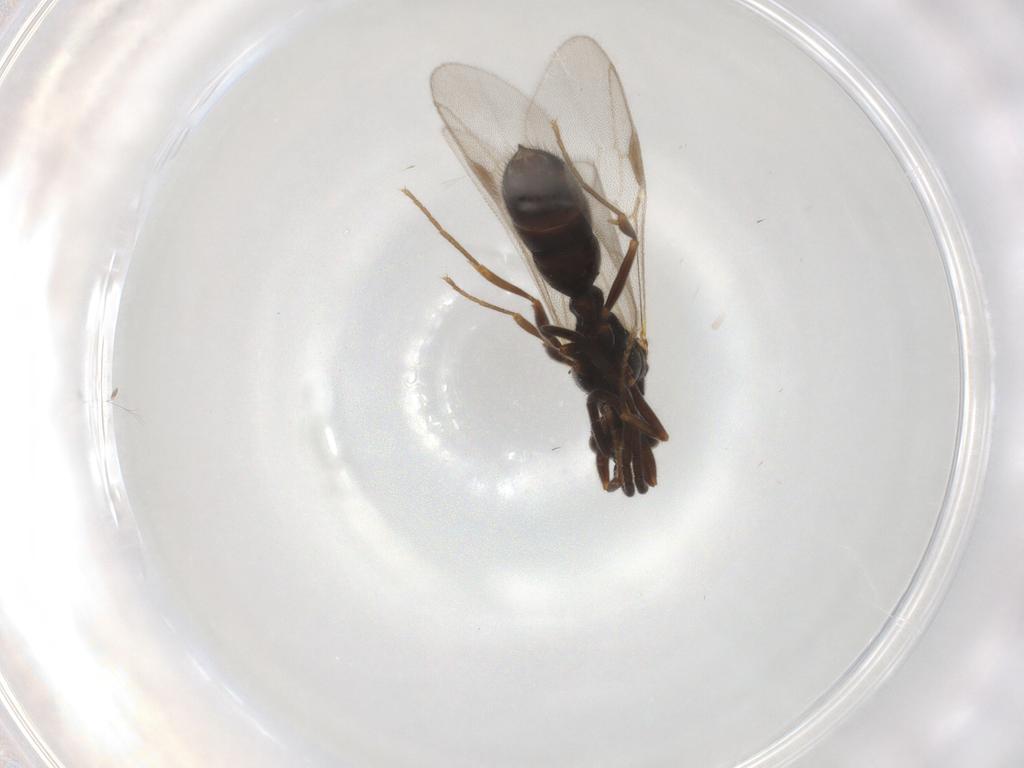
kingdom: Animalia
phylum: Arthropoda
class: Insecta
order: Hymenoptera
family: Formicidae
